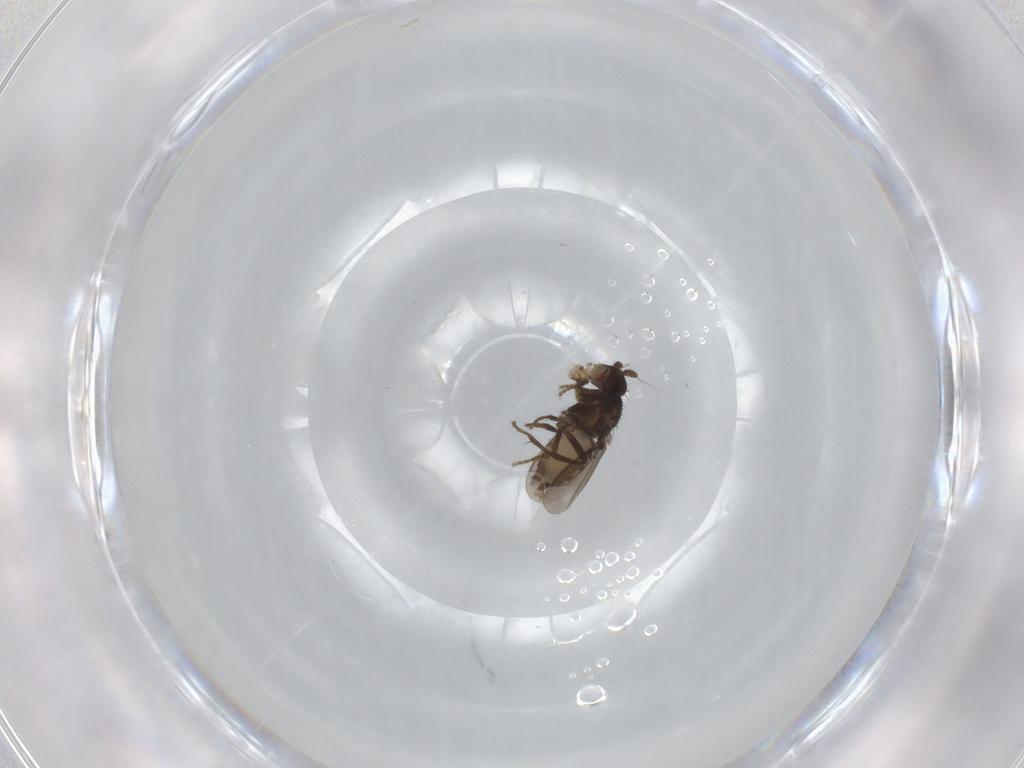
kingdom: Animalia
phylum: Arthropoda
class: Insecta
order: Diptera
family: Sphaeroceridae
